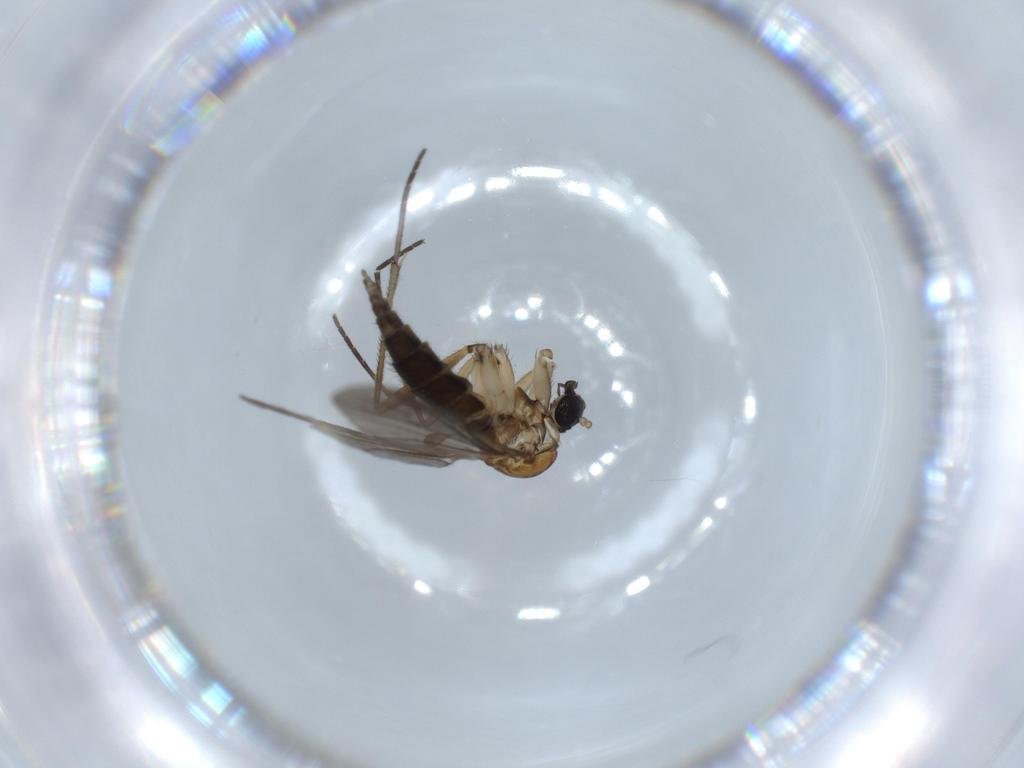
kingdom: Animalia
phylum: Arthropoda
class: Insecta
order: Diptera
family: Sciaridae
